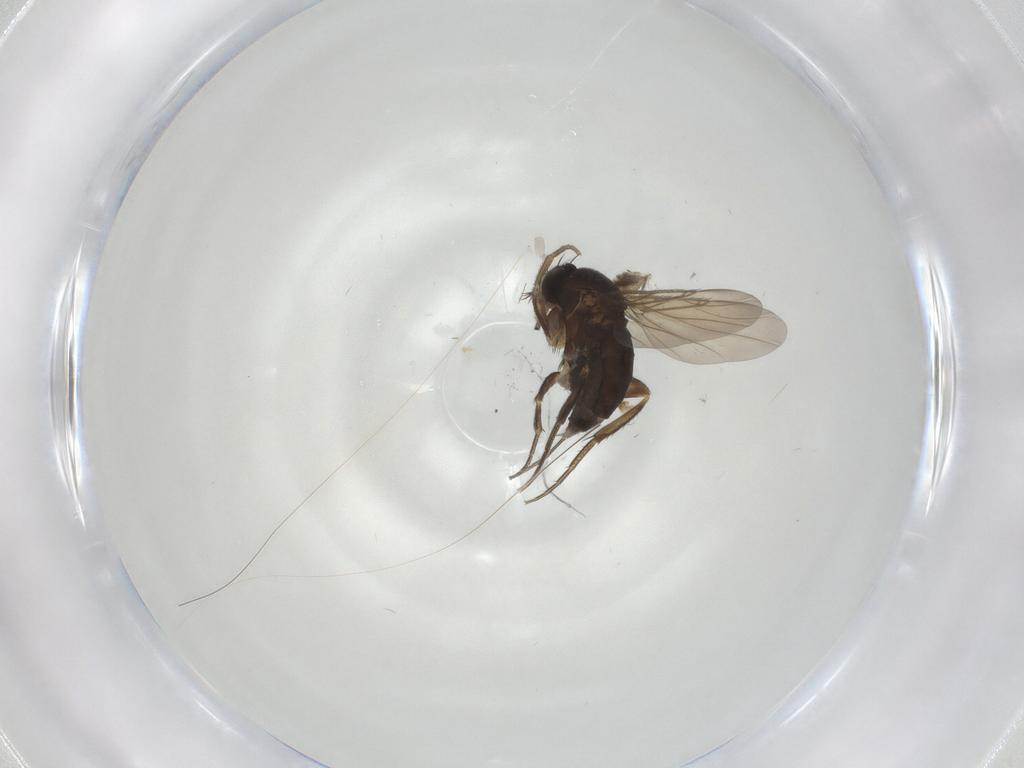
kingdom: Animalia
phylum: Arthropoda
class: Insecta
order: Diptera
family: Phoridae
